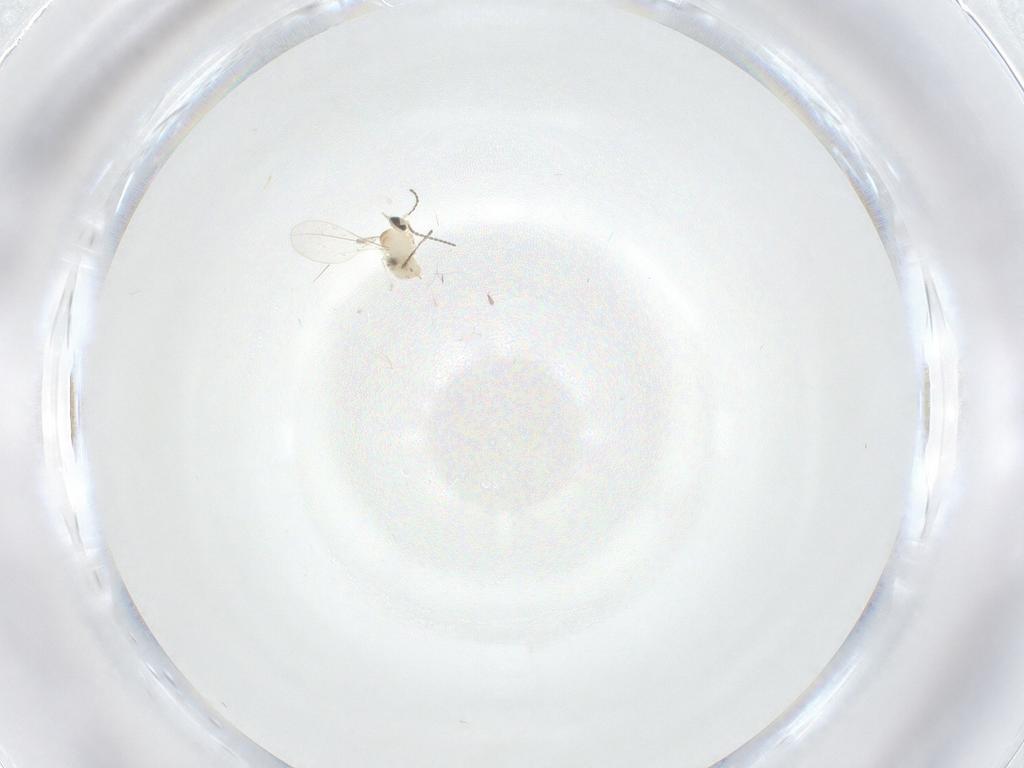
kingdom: Animalia
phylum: Arthropoda
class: Insecta
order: Diptera
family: Cecidomyiidae
